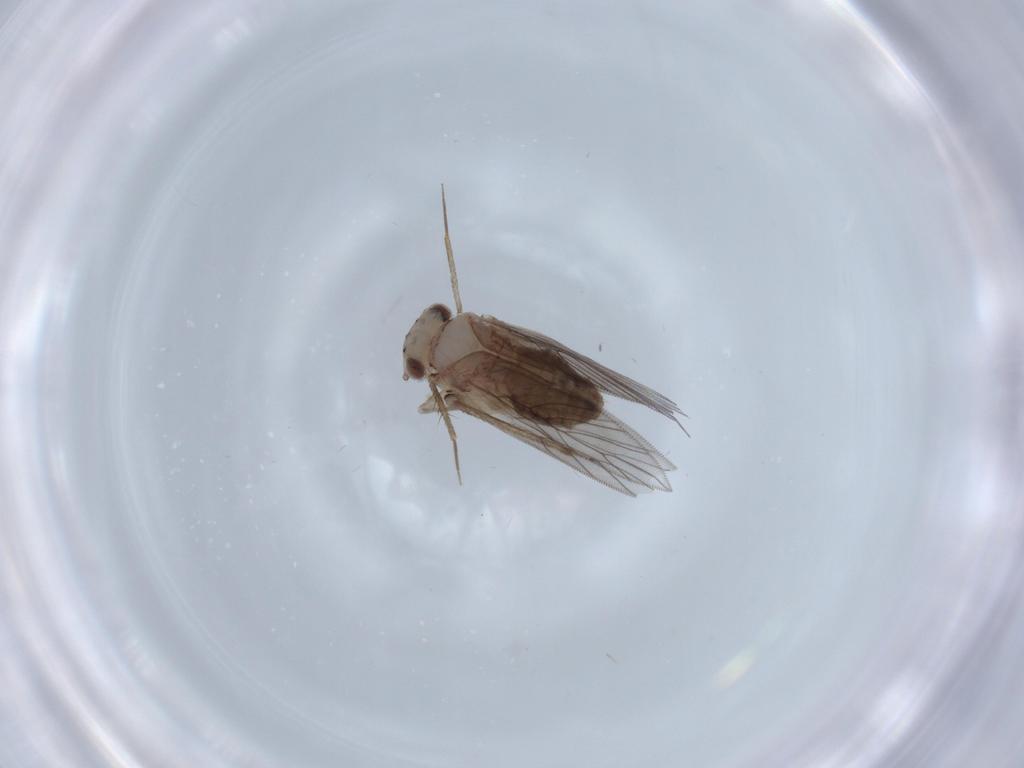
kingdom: Animalia
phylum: Arthropoda
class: Insecta
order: Psocodea
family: Lepidopsocidae
